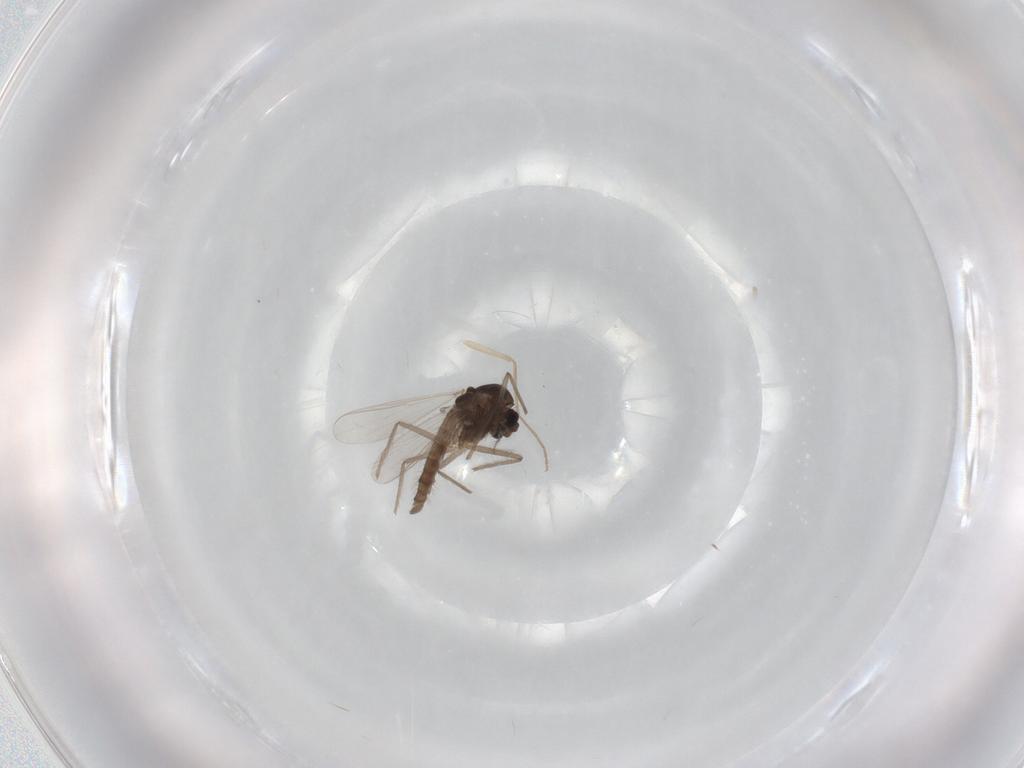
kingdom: Animalia
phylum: Arthropoda
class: Insecta
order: Diptera
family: Chironomidae
